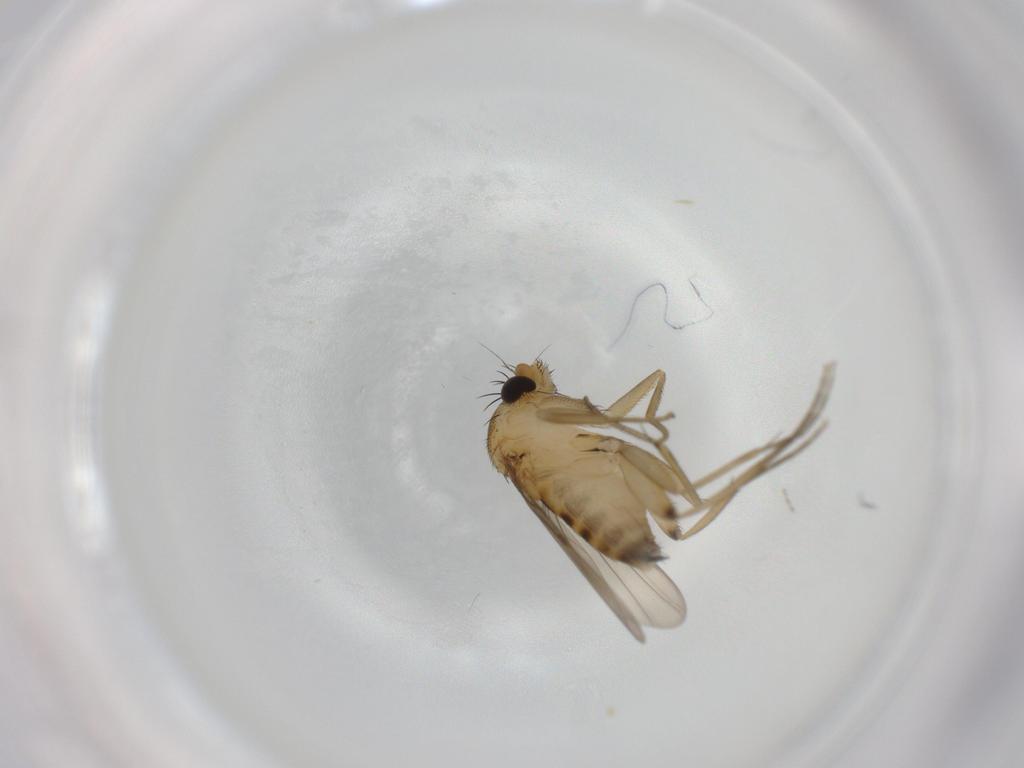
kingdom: Animalia
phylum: Arthropoda
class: Insecta
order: Diptera
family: Phoridae
